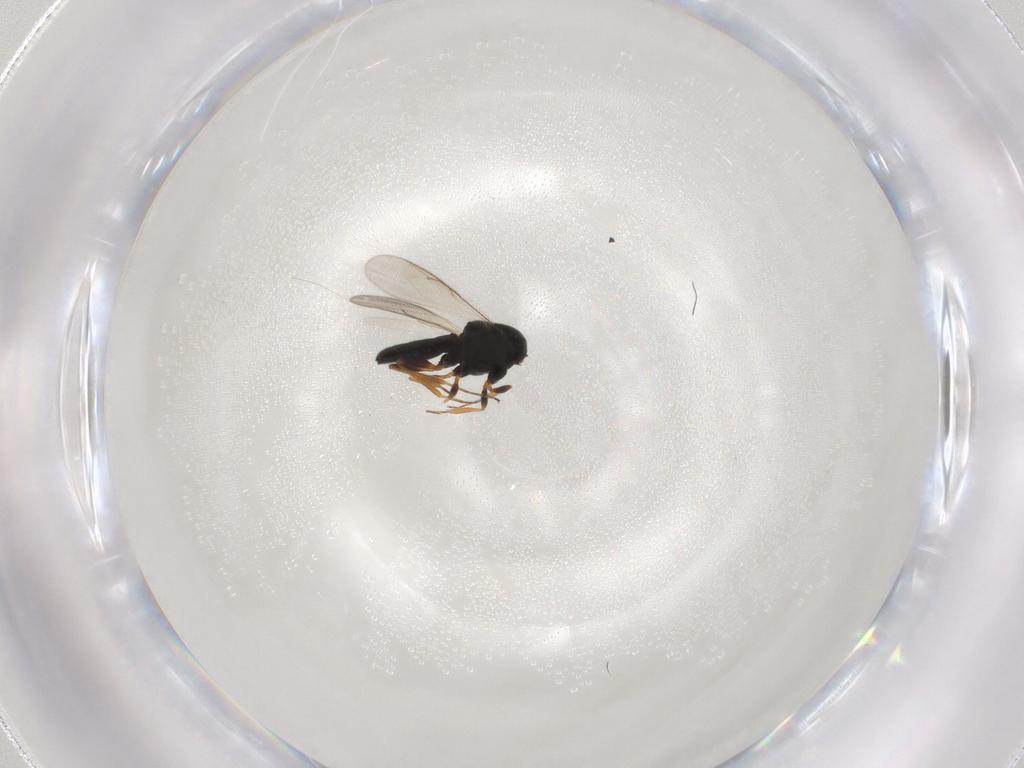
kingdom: Animalia
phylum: Arthropoda
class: Insecta
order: Hymenoptera
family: Scelionidae
